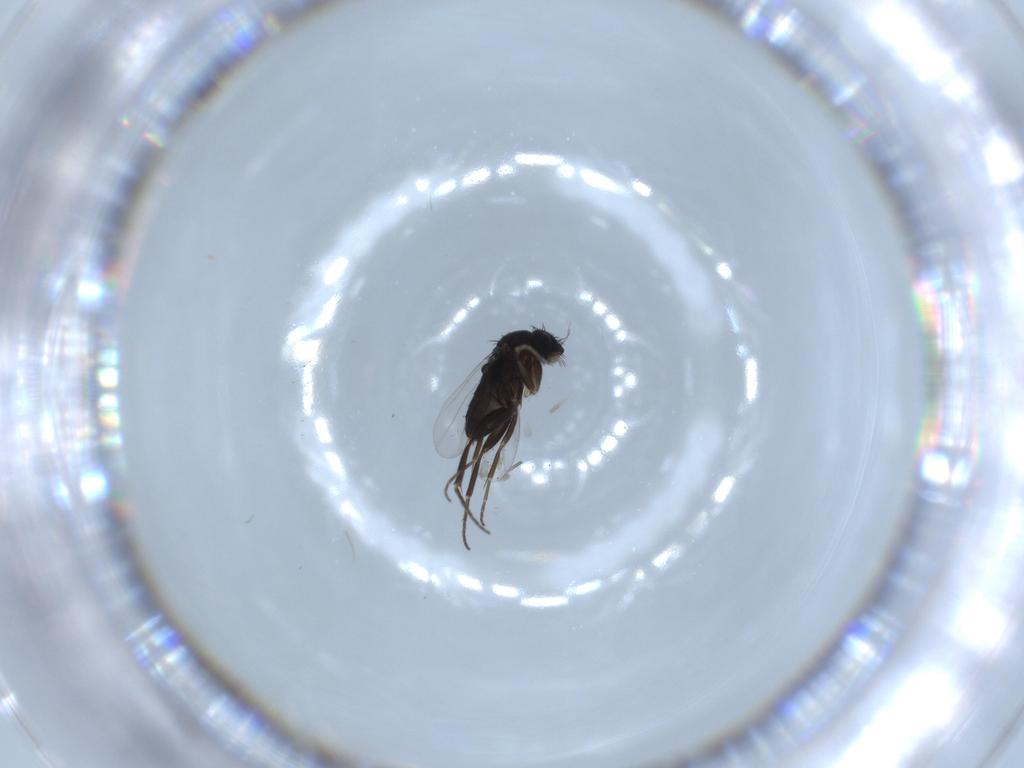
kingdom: Animalia
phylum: Arthropoda
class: Insecta
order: Diptera
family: Phoridae
